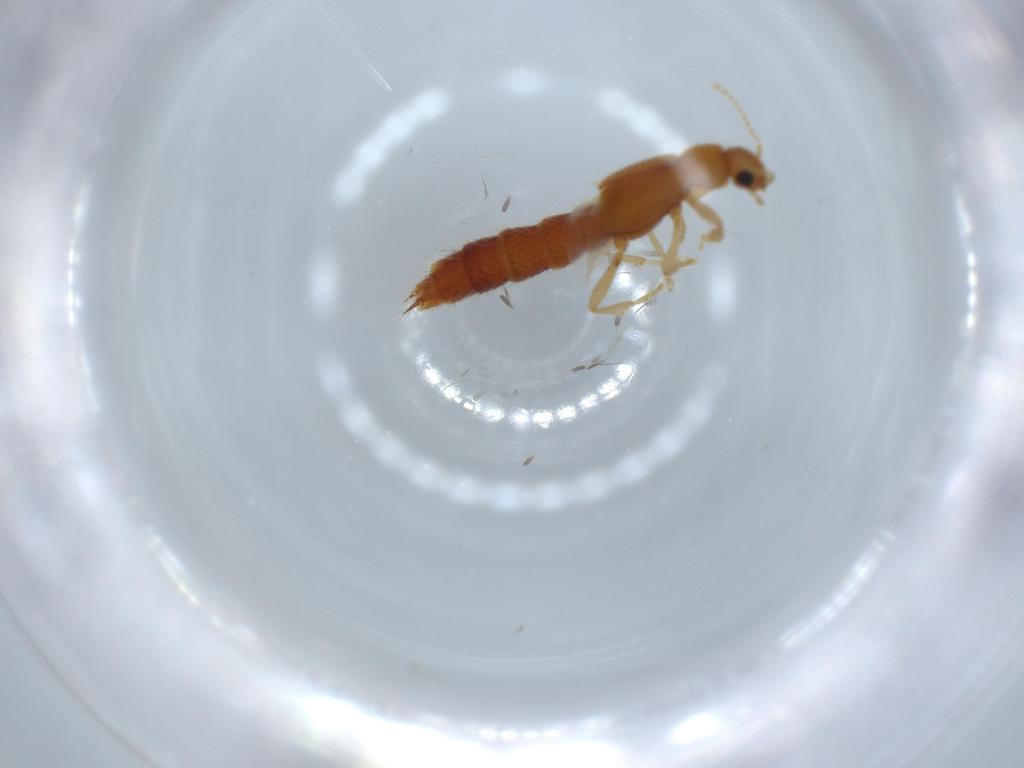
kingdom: Animalia
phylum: Arthropoda
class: Insecta
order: Coleoptera
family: Staphylinidae
